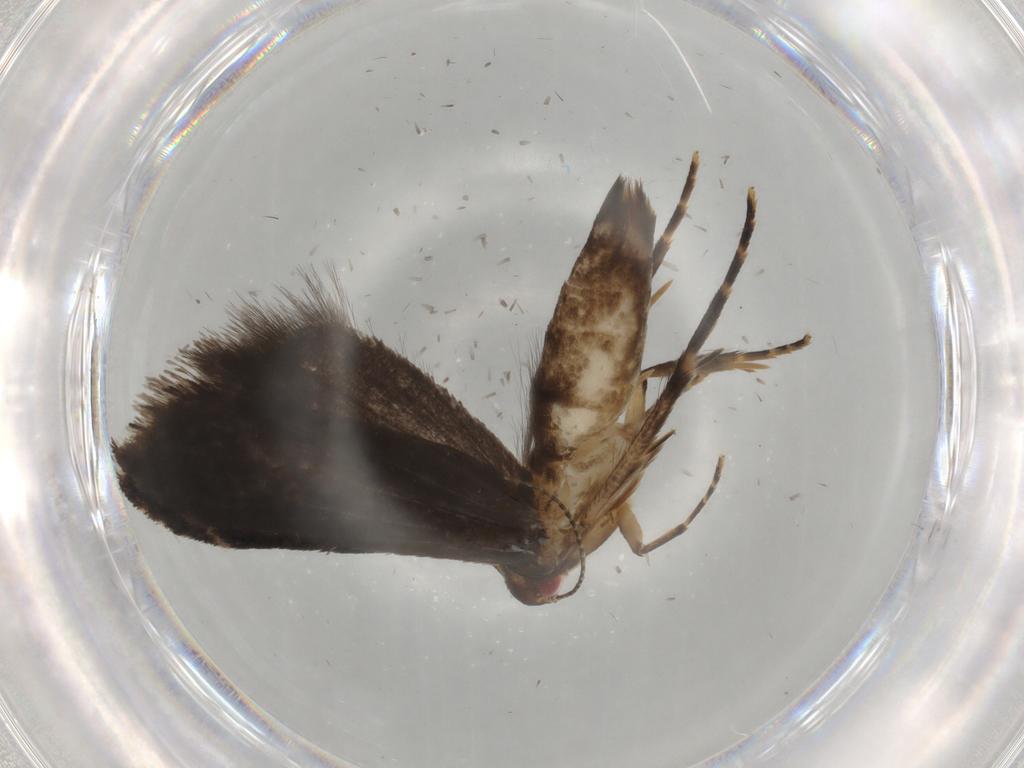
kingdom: Animalia
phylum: Arthropoda
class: Insecta
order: Lepidoptera
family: Gelechiidae
